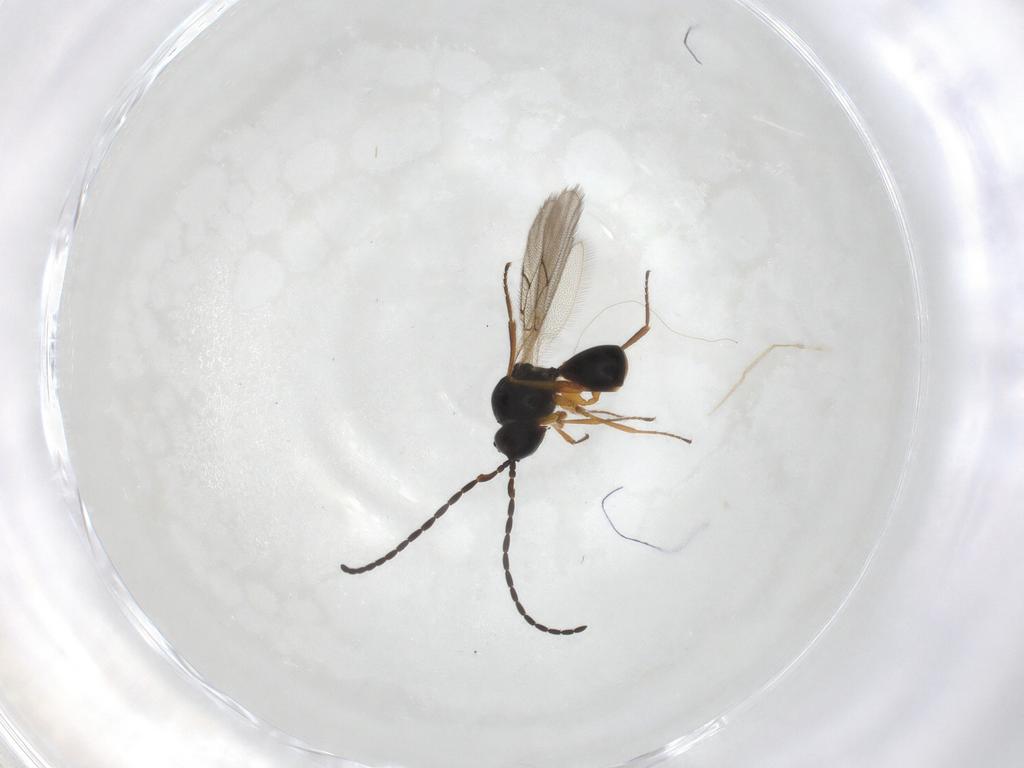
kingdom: Animalia
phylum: Arthropoda
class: Insecta
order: Hymenoptera
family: Figitidae
